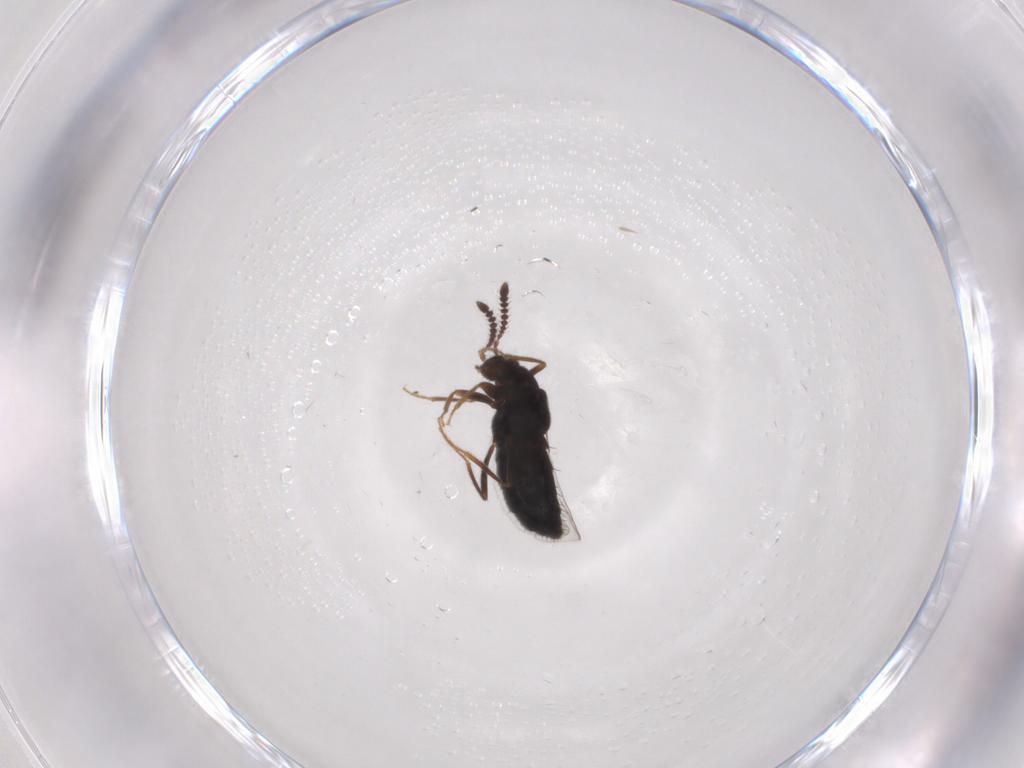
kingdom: Animalia
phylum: Arthropoda
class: Insecta
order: Coleoptera
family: Staphylinidae
